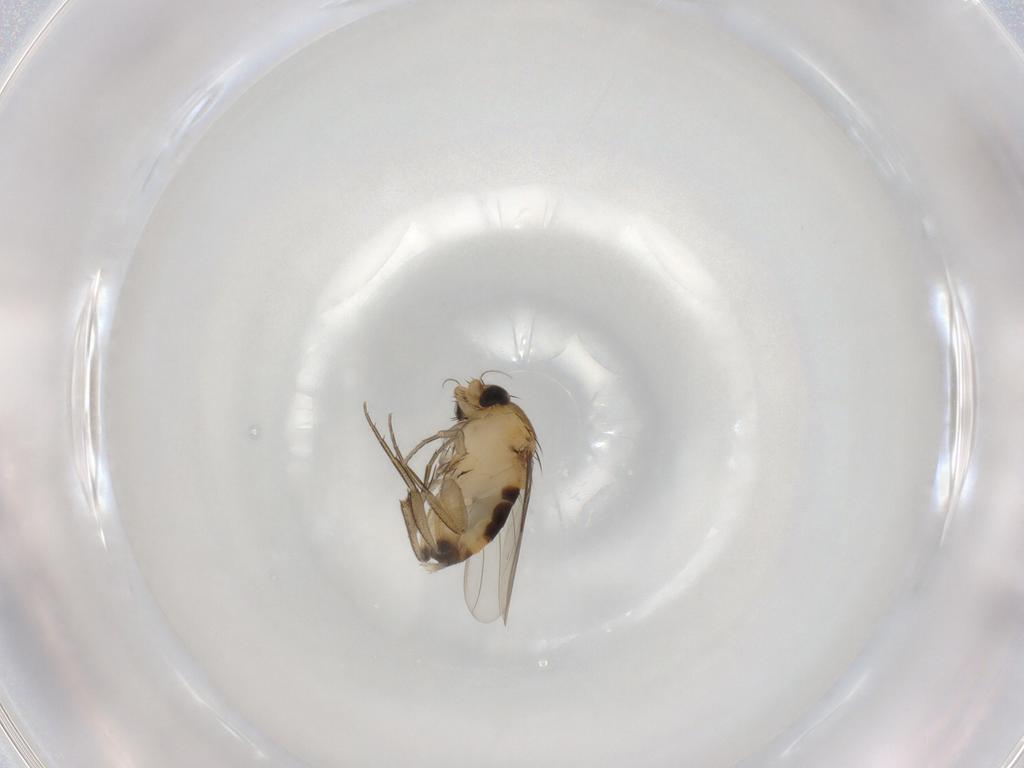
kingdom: Animalia
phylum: Arthropoda
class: Insecta
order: Diptera
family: Phoridae
